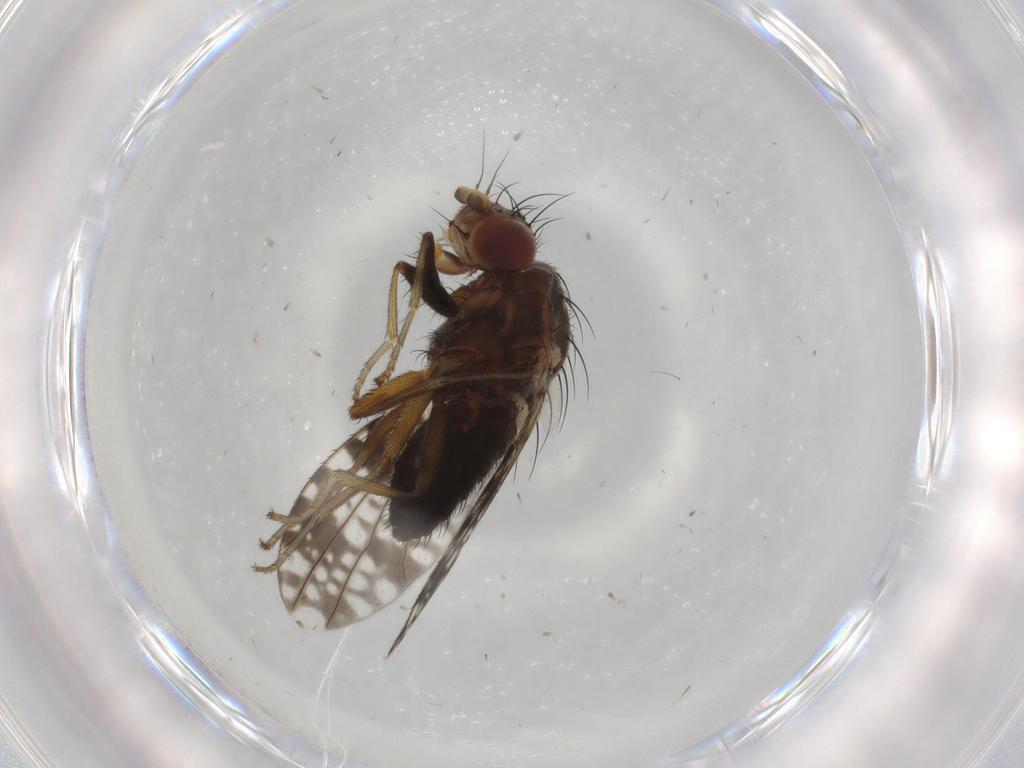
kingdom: Animalia
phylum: Arthropoda
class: Insecta
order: Diptera
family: Tephritidae
